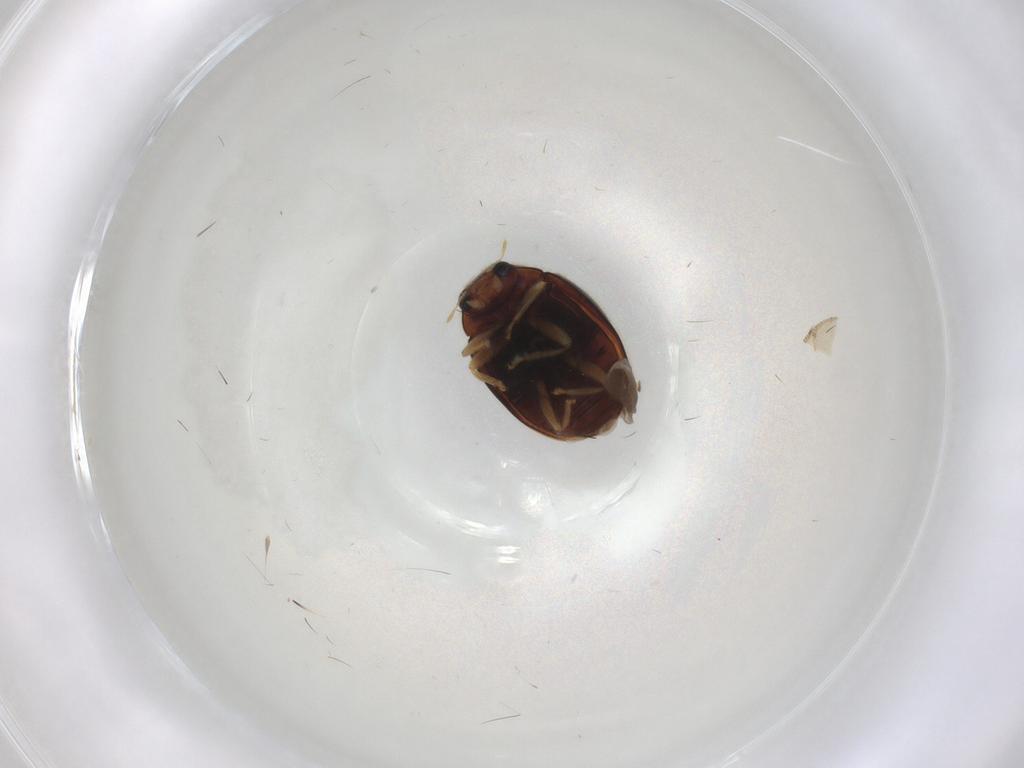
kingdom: Animalia
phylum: Arthropoda
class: Insecta
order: Coleoptera
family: Coccinellidae
